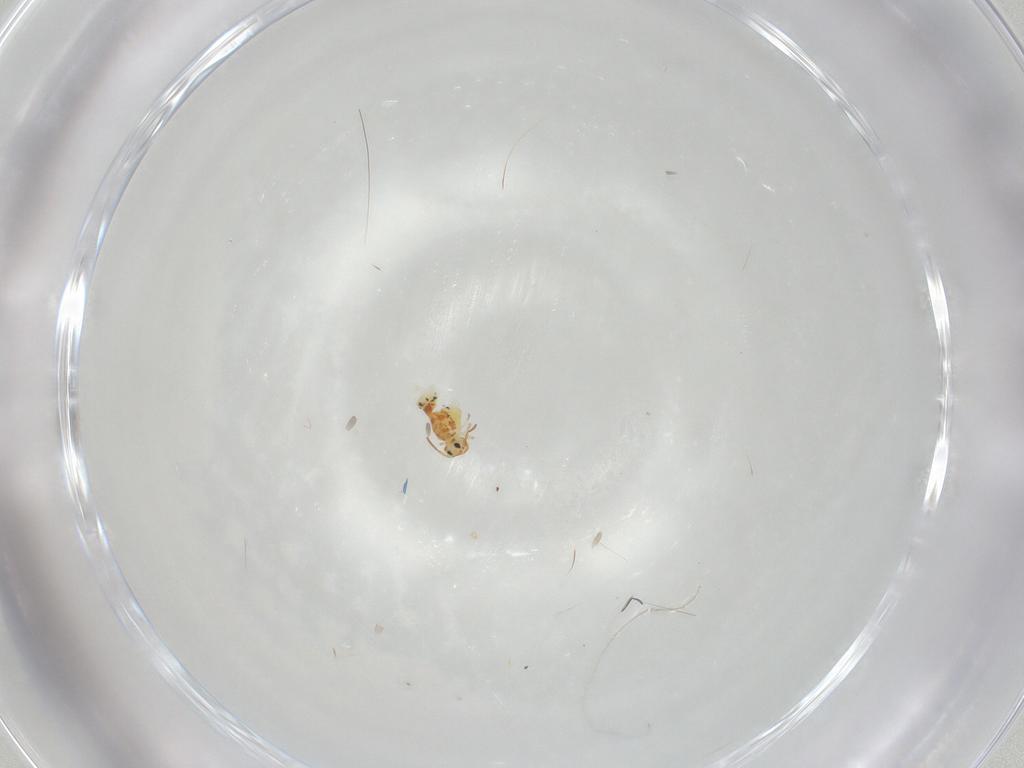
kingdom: Animalia
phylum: Arthropoda
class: Collembola
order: Symphypleona
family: Bourletiellidae
